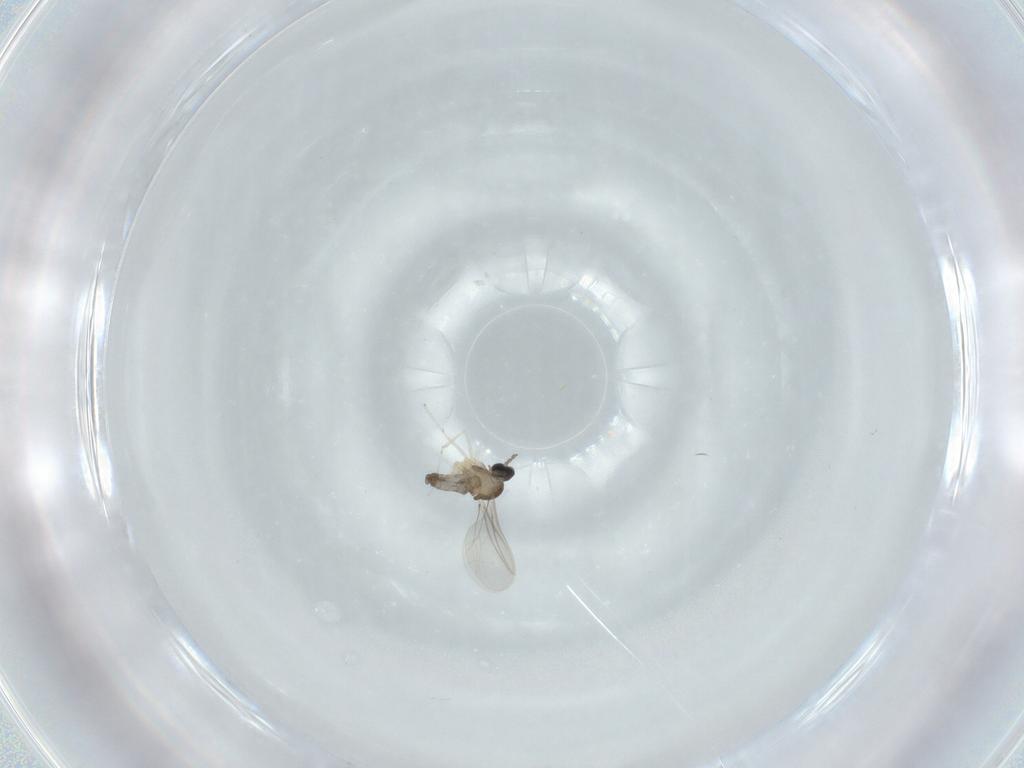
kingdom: Animalia
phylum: Arthropoda
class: Insecta
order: Diptera
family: Cecidomyiidae
